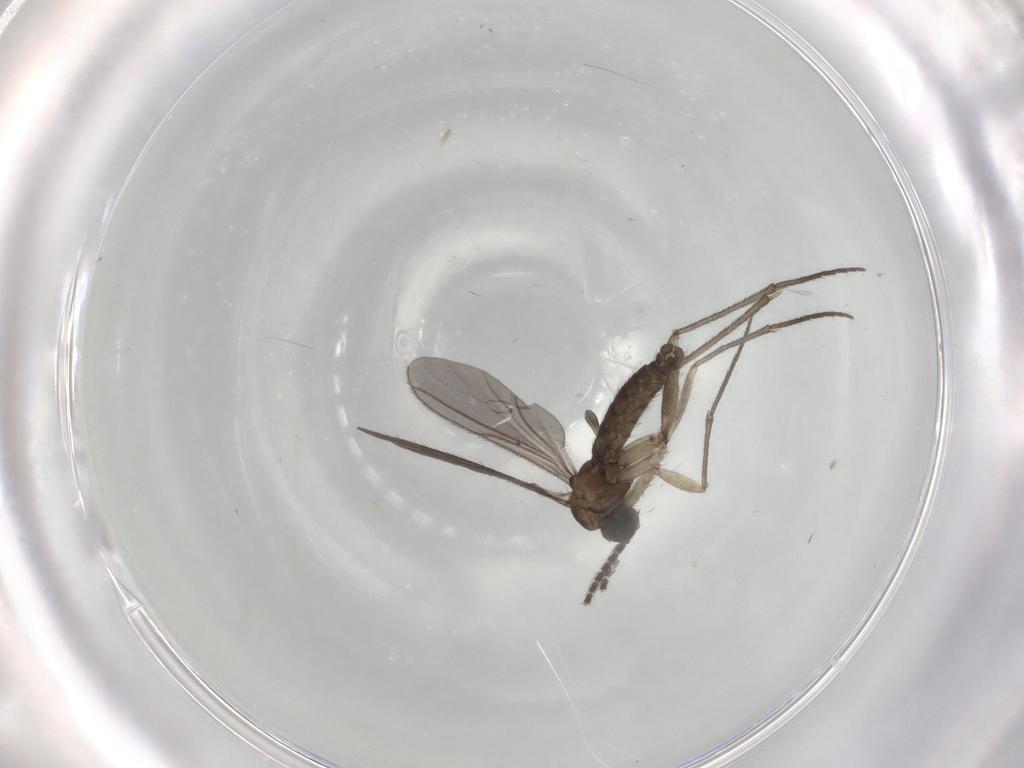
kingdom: Animalia
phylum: Arthropoda
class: Insecta
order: Diptera
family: Sciaridae
